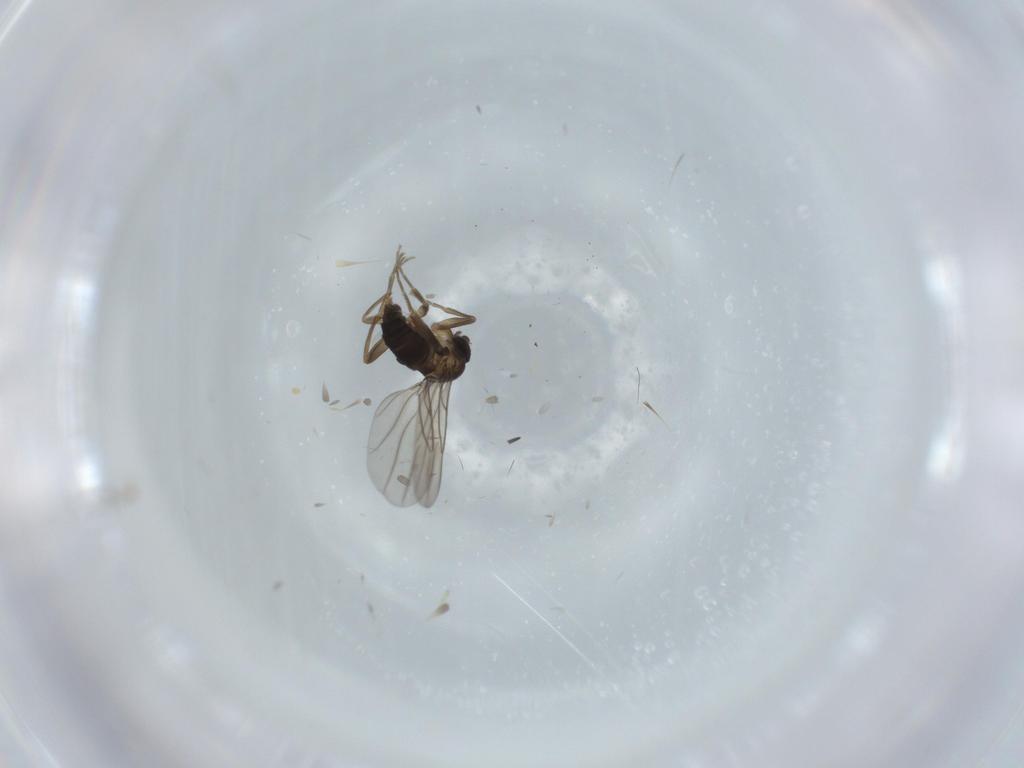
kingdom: Animalia
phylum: Arthropoda
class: Insecta
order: Diptera
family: Phoridae
